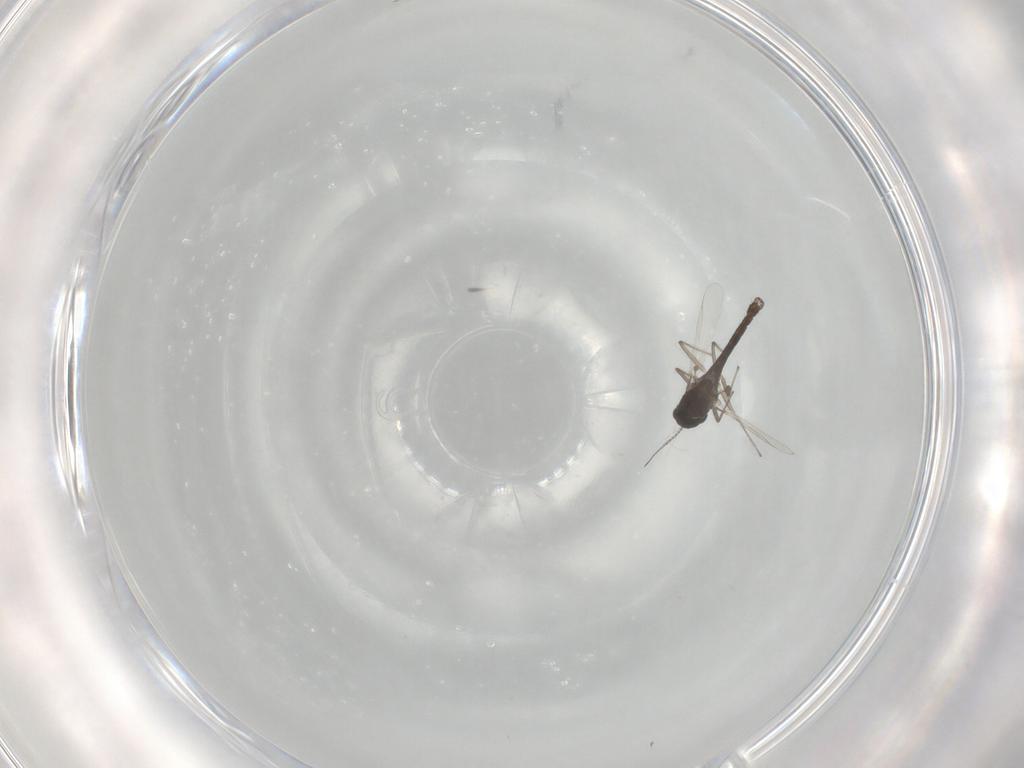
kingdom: Animalia
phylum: Arthropoda
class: Insecta
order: Diptera
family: Chironomidae
